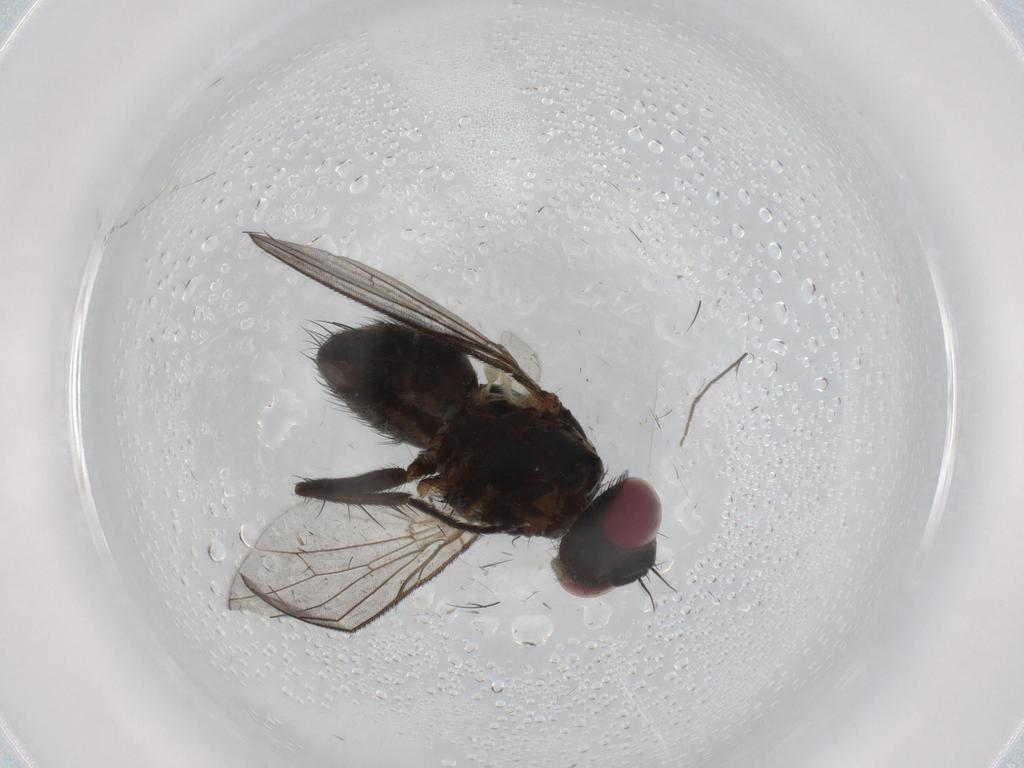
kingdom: Animalia
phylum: Arthropoda
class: Insecta
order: Diptera
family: Muscidae
